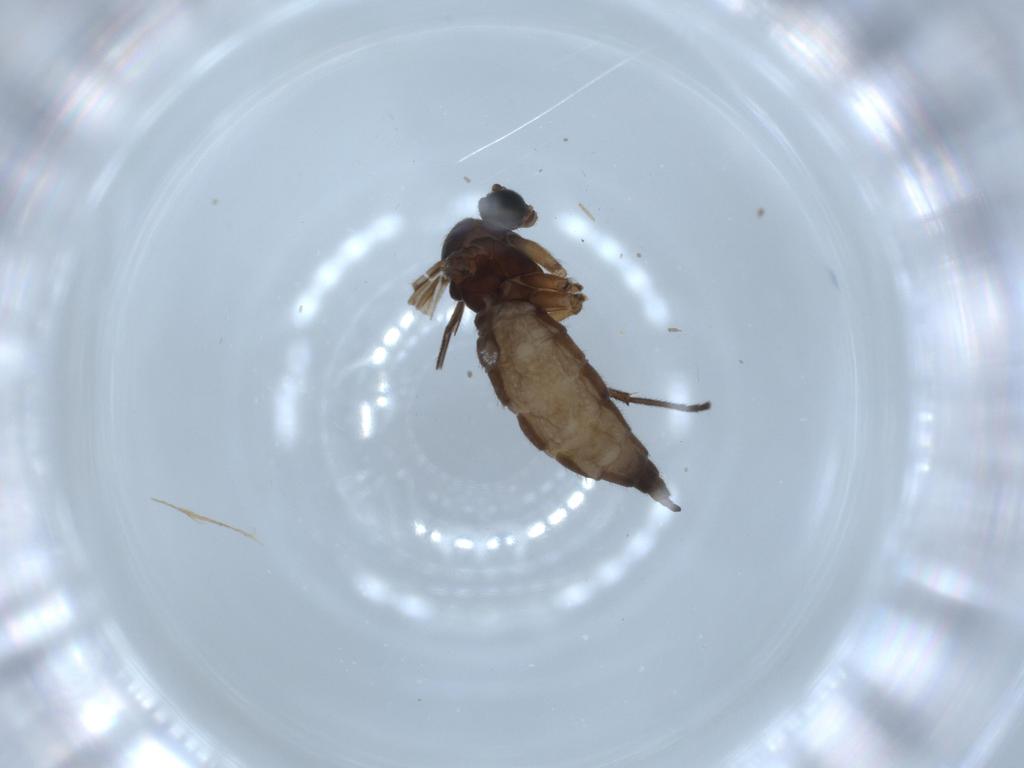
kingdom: Animalia
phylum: Arthropoda
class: Insecta
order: Diptera
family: Sciaridae
